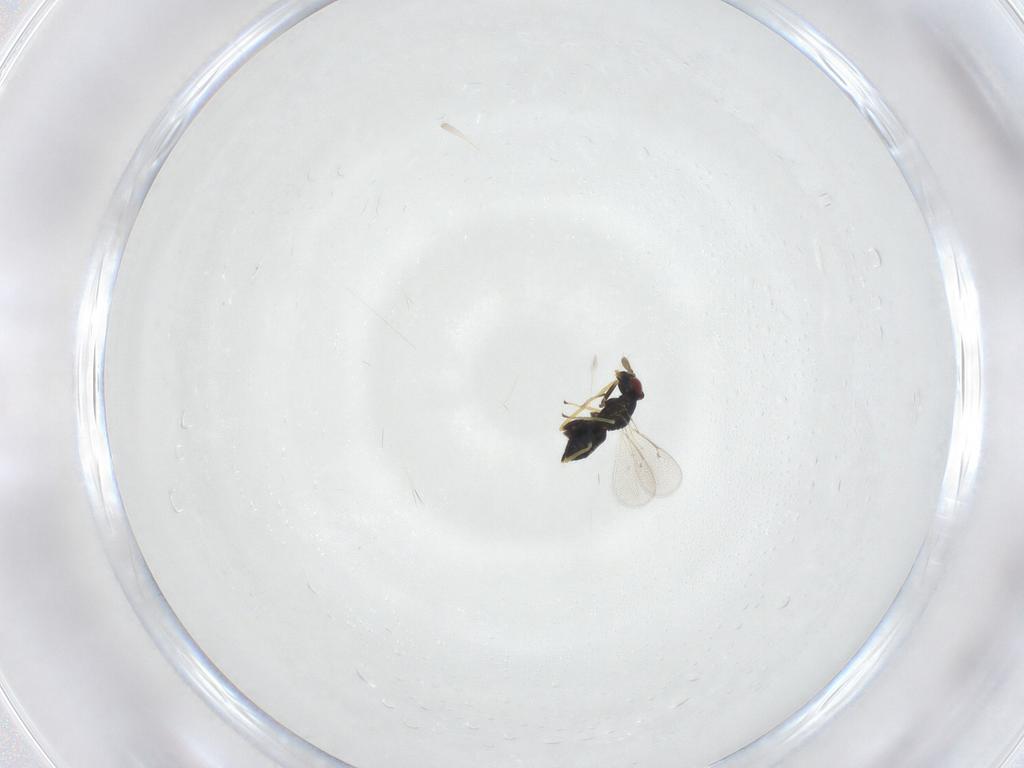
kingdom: Animalia
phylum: Arthropoda
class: Insecta
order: Hymenoptera
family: Eulophidae
